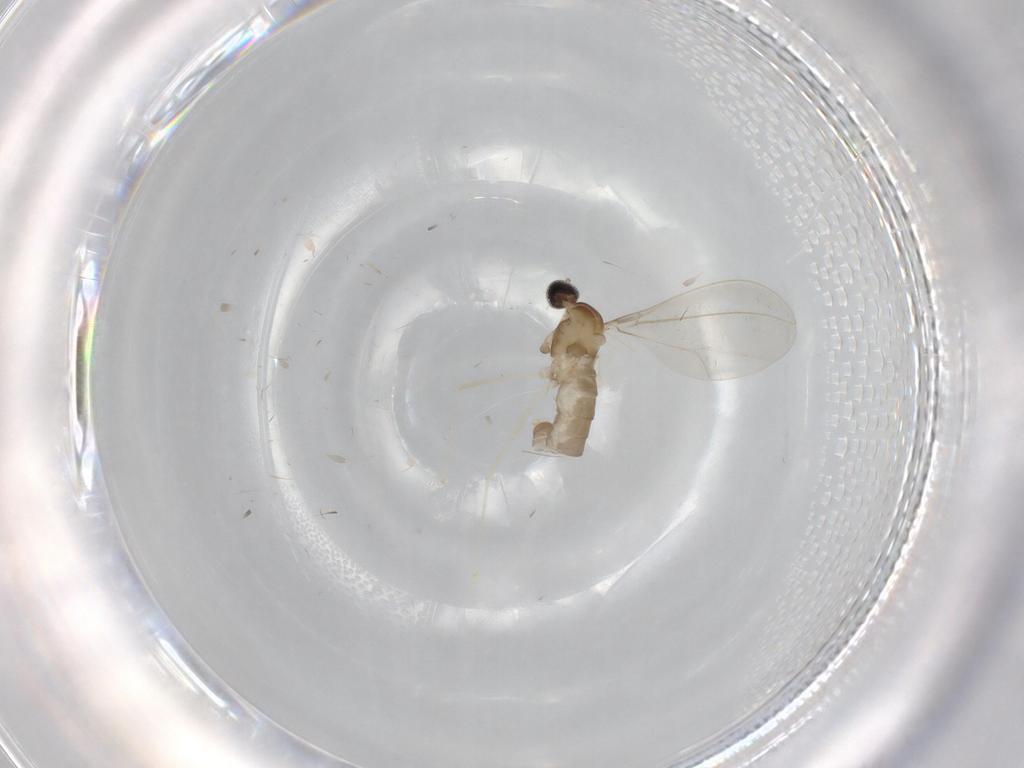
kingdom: Animalia
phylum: Arthropoda
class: Insecta
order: Diptera
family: Cecidomyiidae
